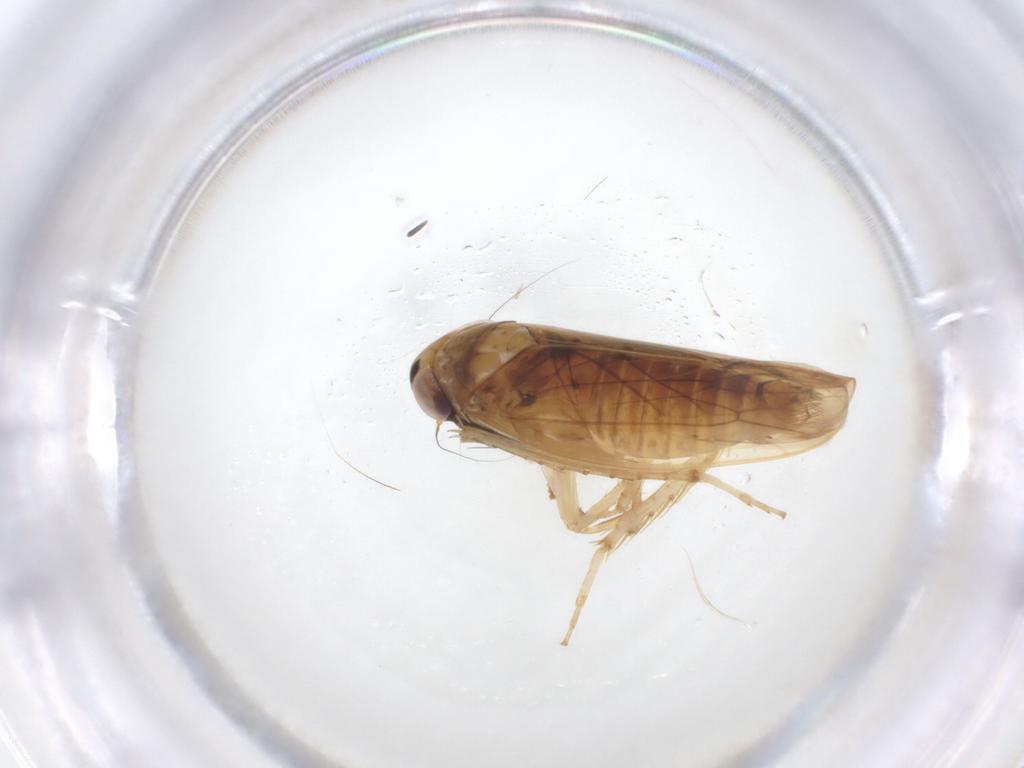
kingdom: Animalia
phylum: Arthropoda
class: Insecta
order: Hemiptera
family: Cicadellidae
